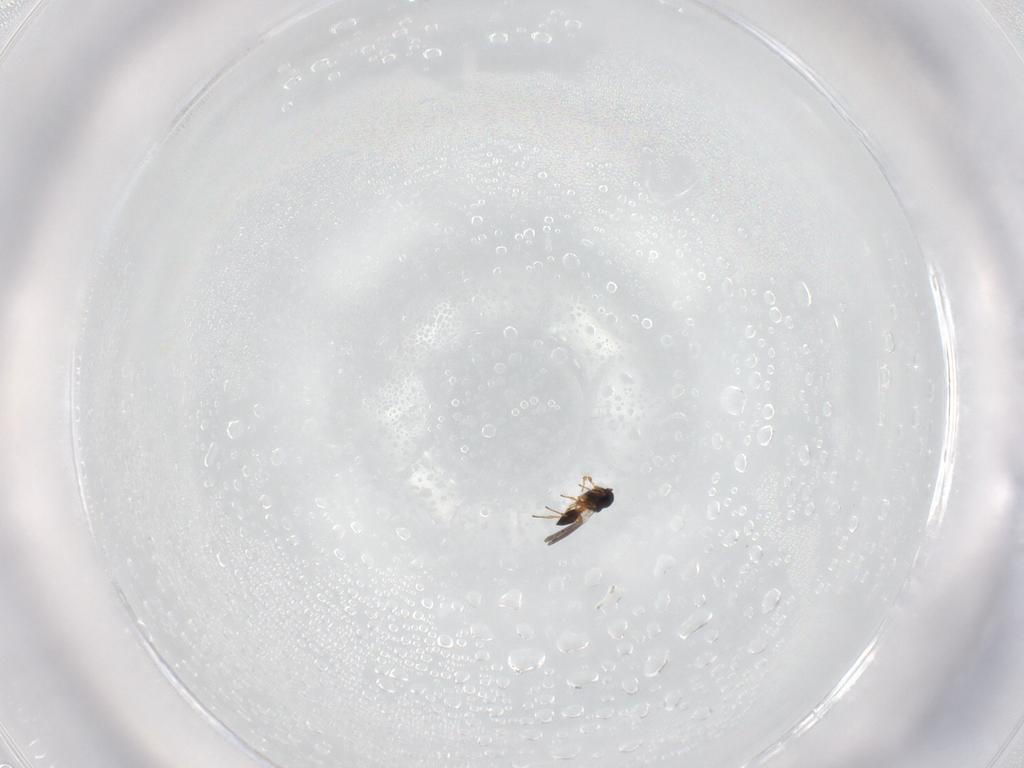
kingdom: Animalia
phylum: Arthropoda
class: Insecta
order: Hymenoptera
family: Platygastridae
